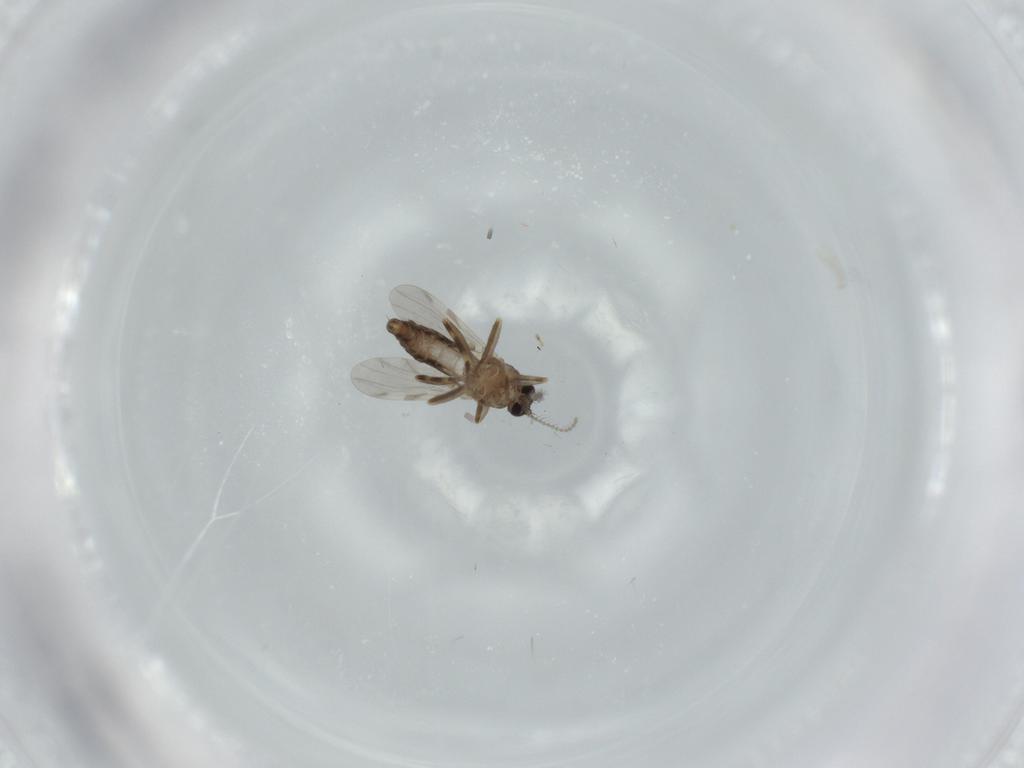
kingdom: Animalia
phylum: Arthropoda
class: Insecta
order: Diptera
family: Ceratopogonidae
